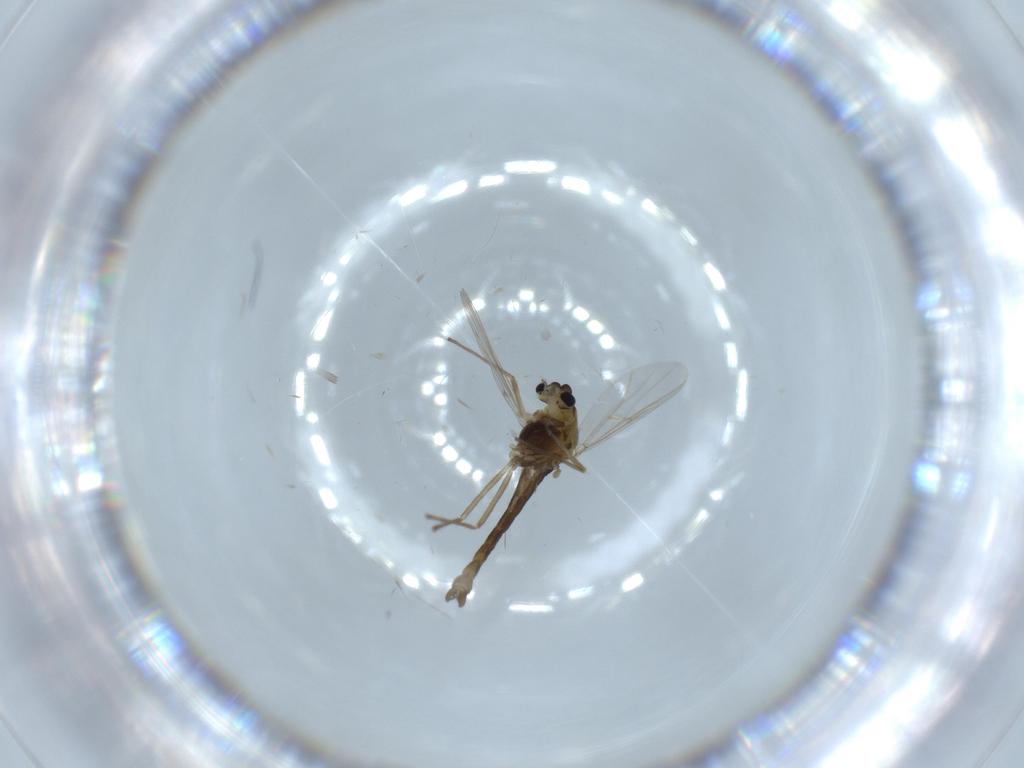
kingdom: Animalia
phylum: Arthropoda
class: Insecta
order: Diptera
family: Chironomidae
